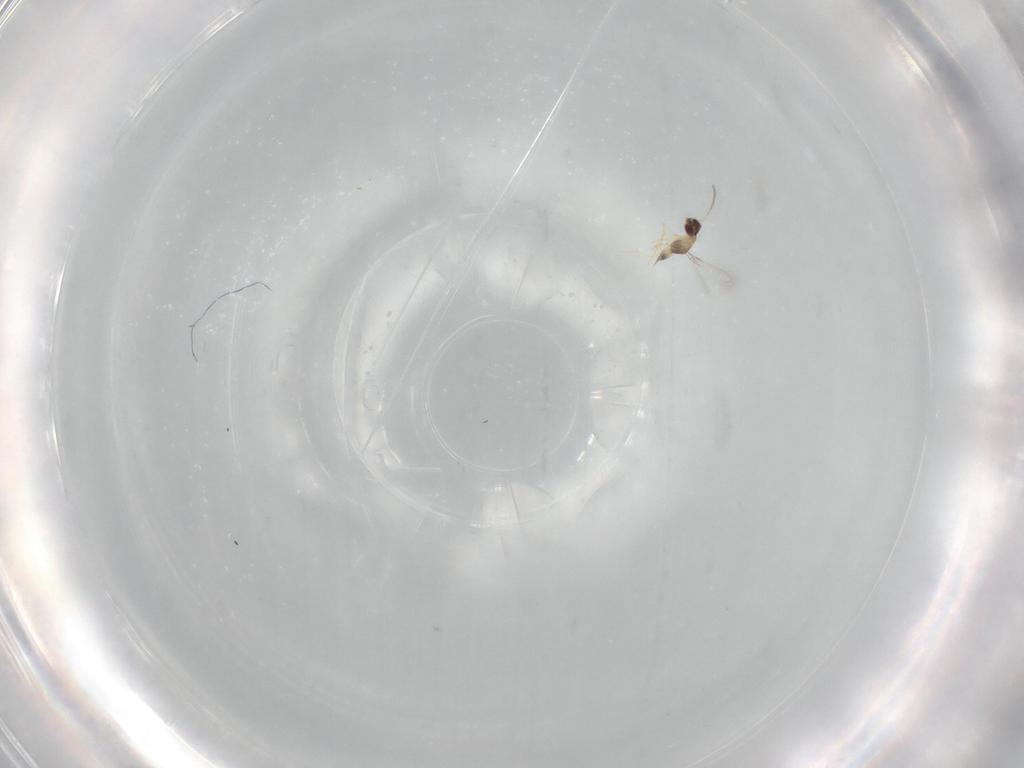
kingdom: Animalia
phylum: Arthropoda
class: Insecta
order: Hymenoptera
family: Mymaridae
